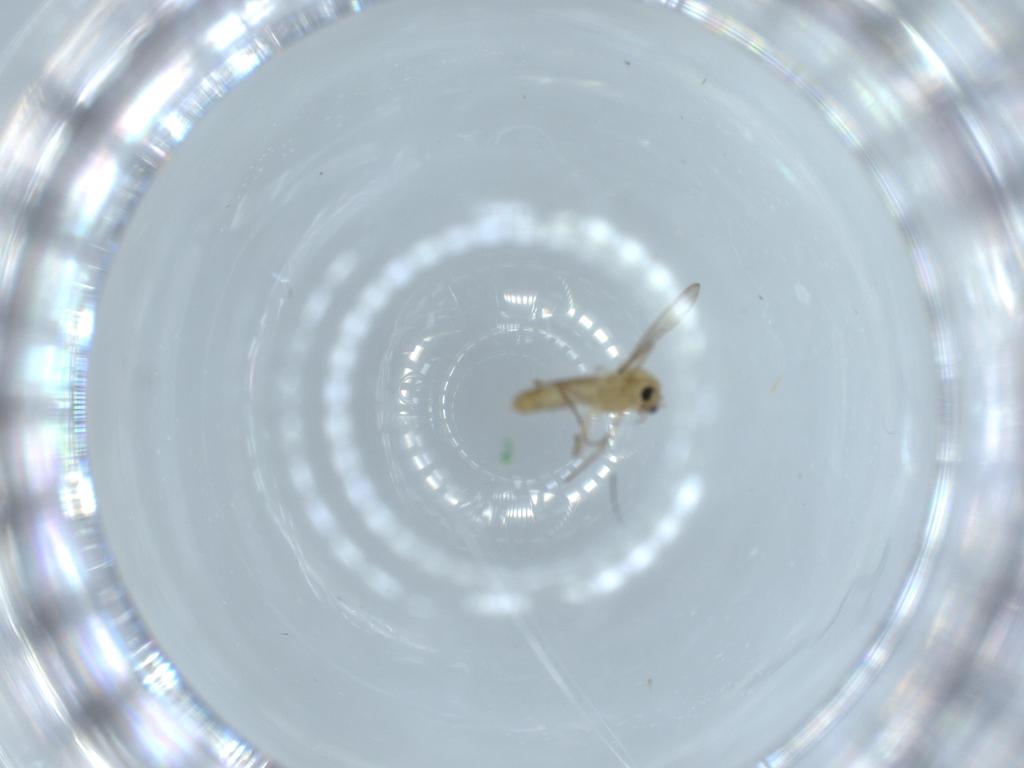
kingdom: Animalia
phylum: Arthropoda
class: Insecta
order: Diptera
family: Chironomidae
